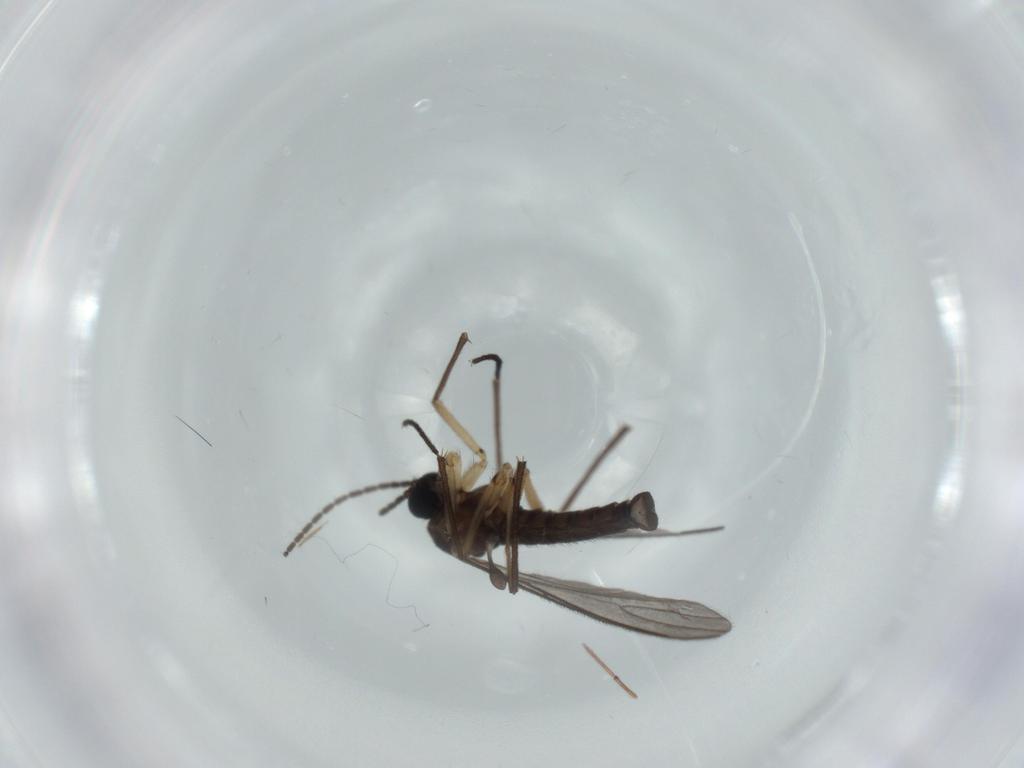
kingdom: Animalia
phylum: Arthropoda
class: Insecta
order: Diptera
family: Sciaridae
